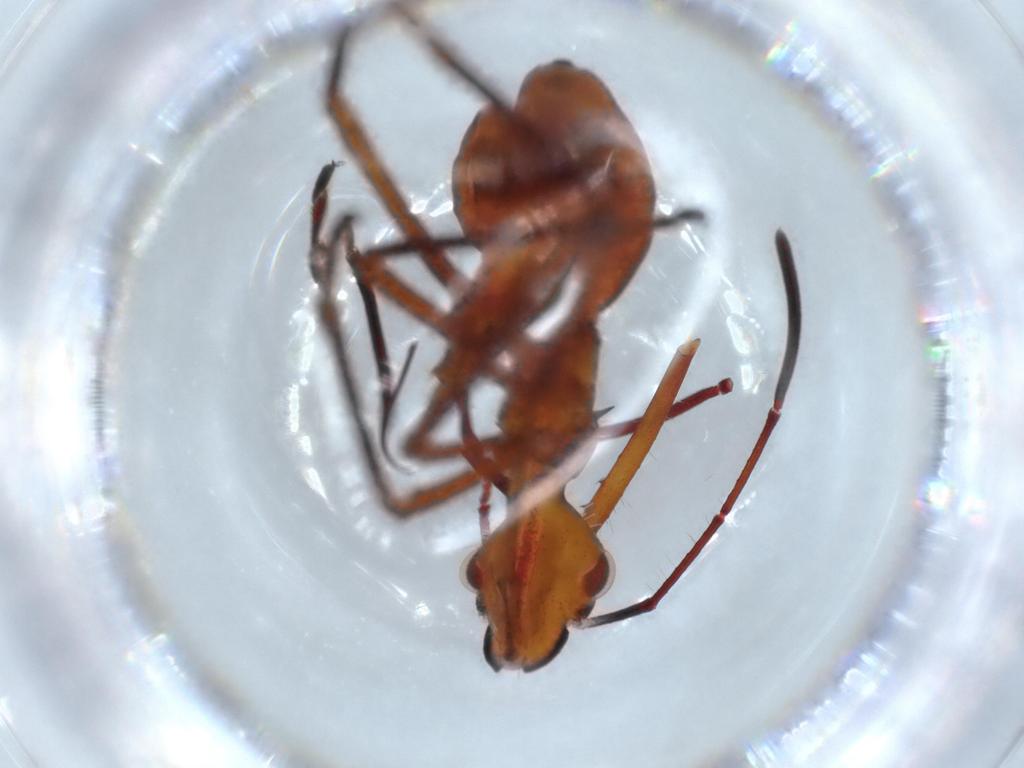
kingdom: Animalia
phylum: Arthropoda
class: Insecta
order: Hemiptera
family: Alydidae
